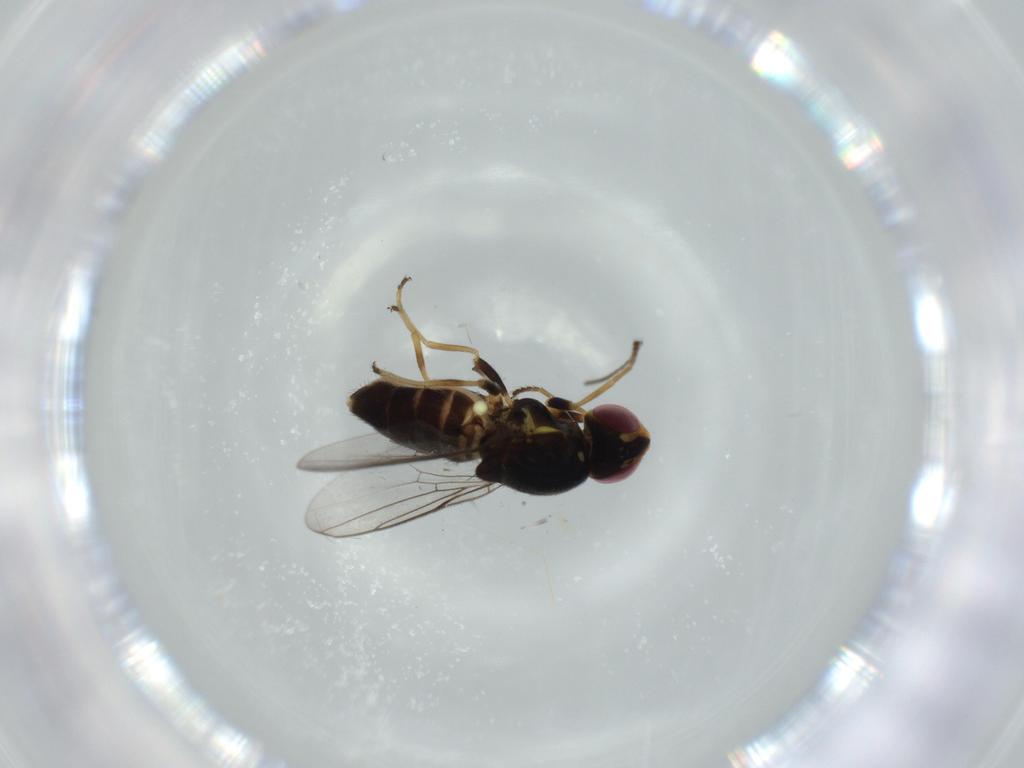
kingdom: Animalia
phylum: Arthropoda
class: Insecta
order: Diptera
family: Chloropidae
